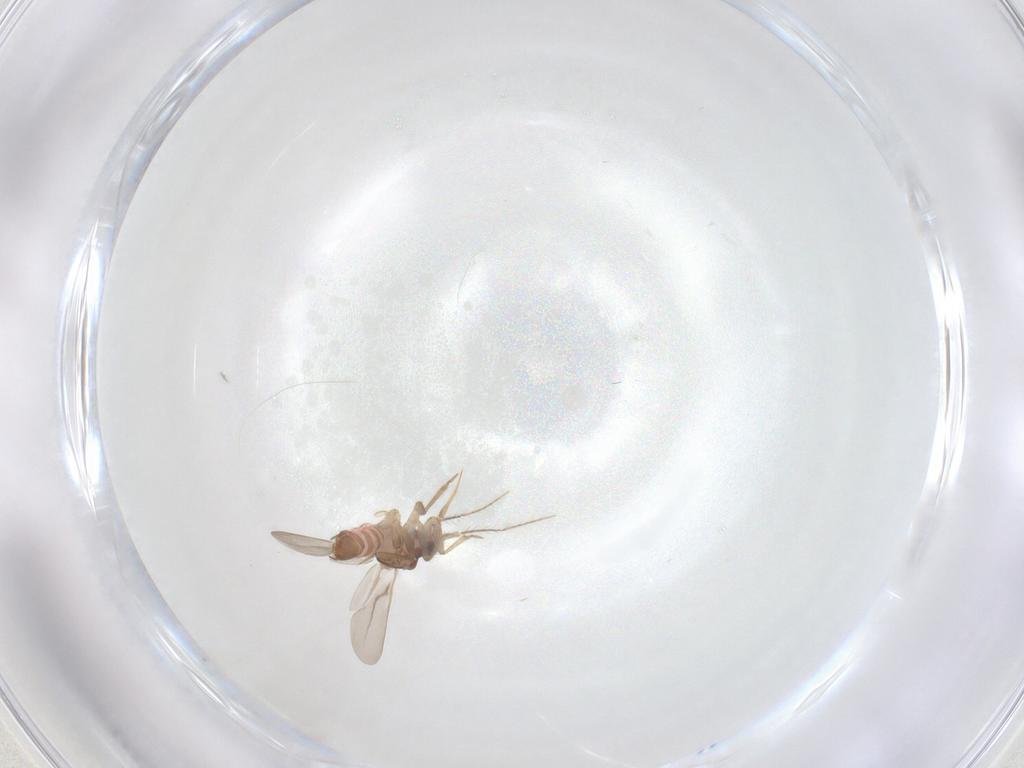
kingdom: Animalia
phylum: Arthropoda
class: Insecta
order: Hemiptera
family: Ceratocombidae
